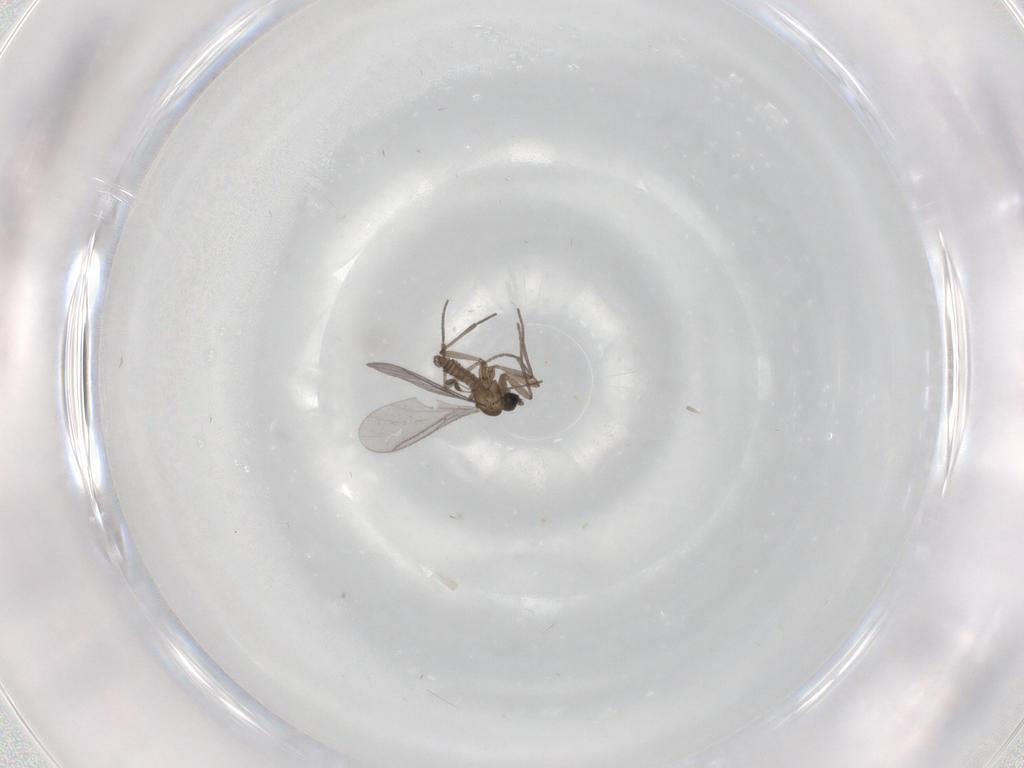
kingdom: Animalia
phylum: Arthropoda
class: Insecta
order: Diptera
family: Sciaridae
